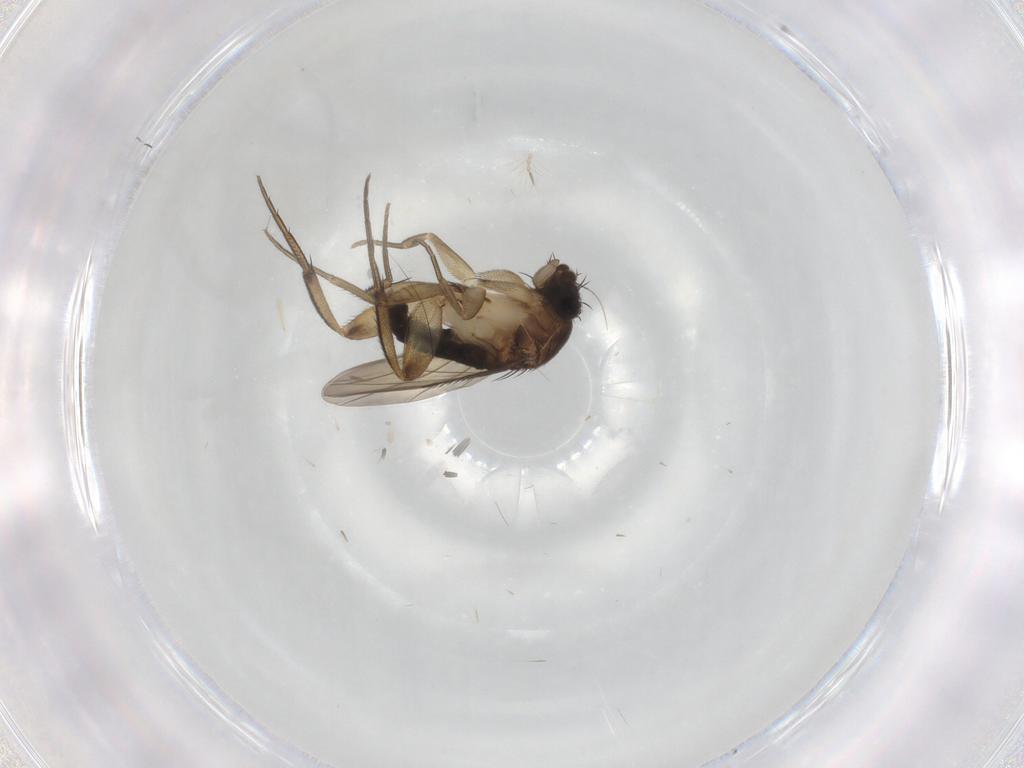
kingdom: Animalia
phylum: Arthropoda
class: Insecta
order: Diptera
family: Phoridae
